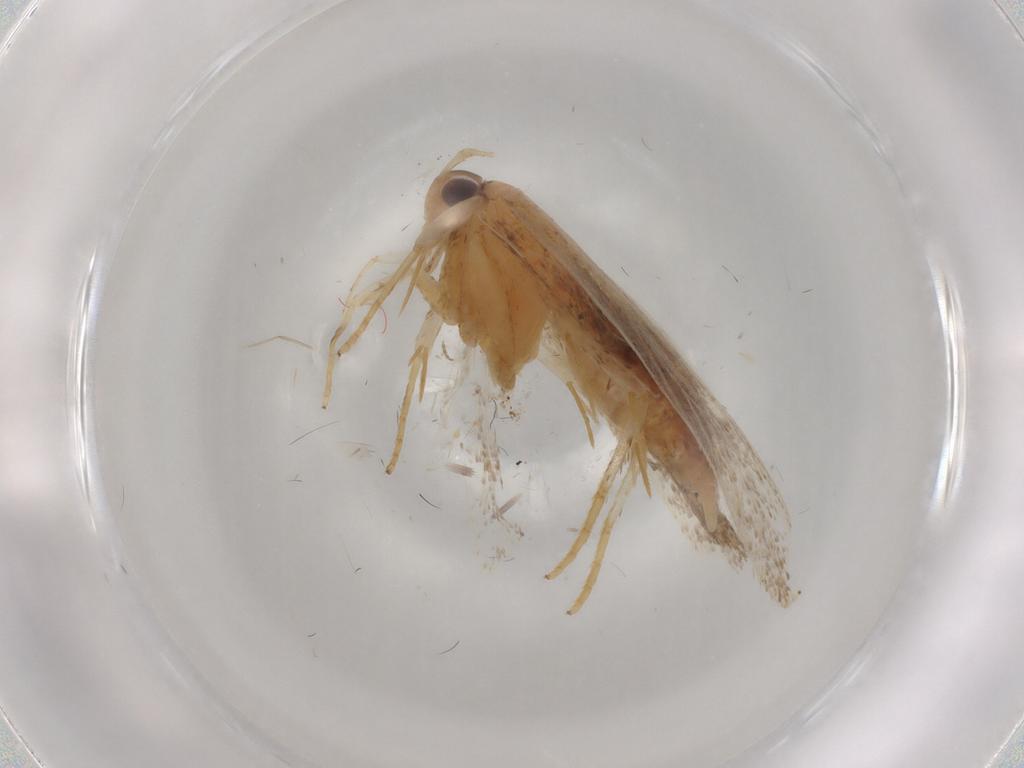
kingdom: Animalia
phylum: Arthropoda
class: Insecta
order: Lepidoptera
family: Lecithoceridae
